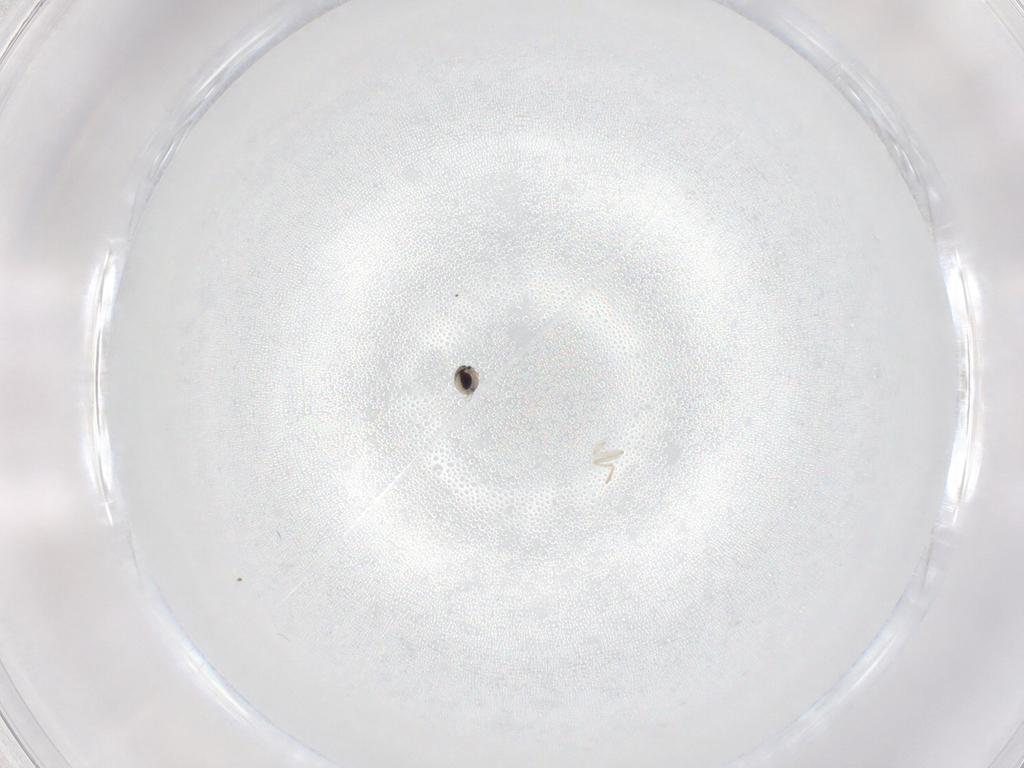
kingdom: Animalia
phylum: Arthropoda
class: Insecta
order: Diptera
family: Cecidomyiidae
